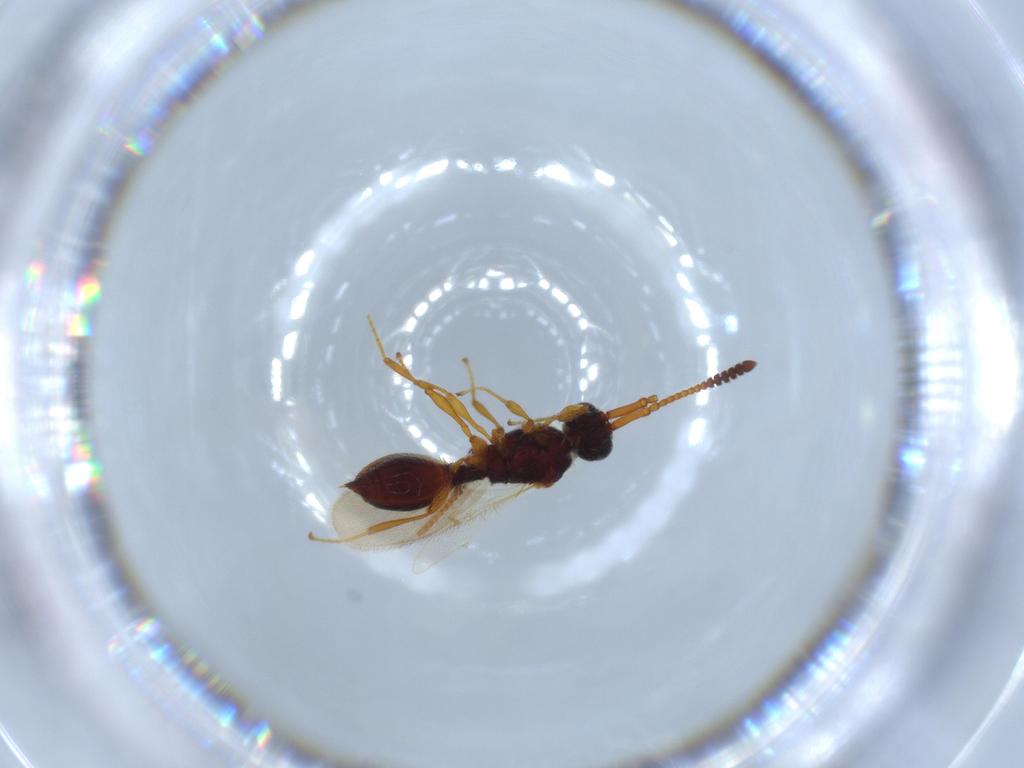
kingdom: Animalia
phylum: Arthropoda
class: Insecta
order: Hymenoptera
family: Diapriidae
